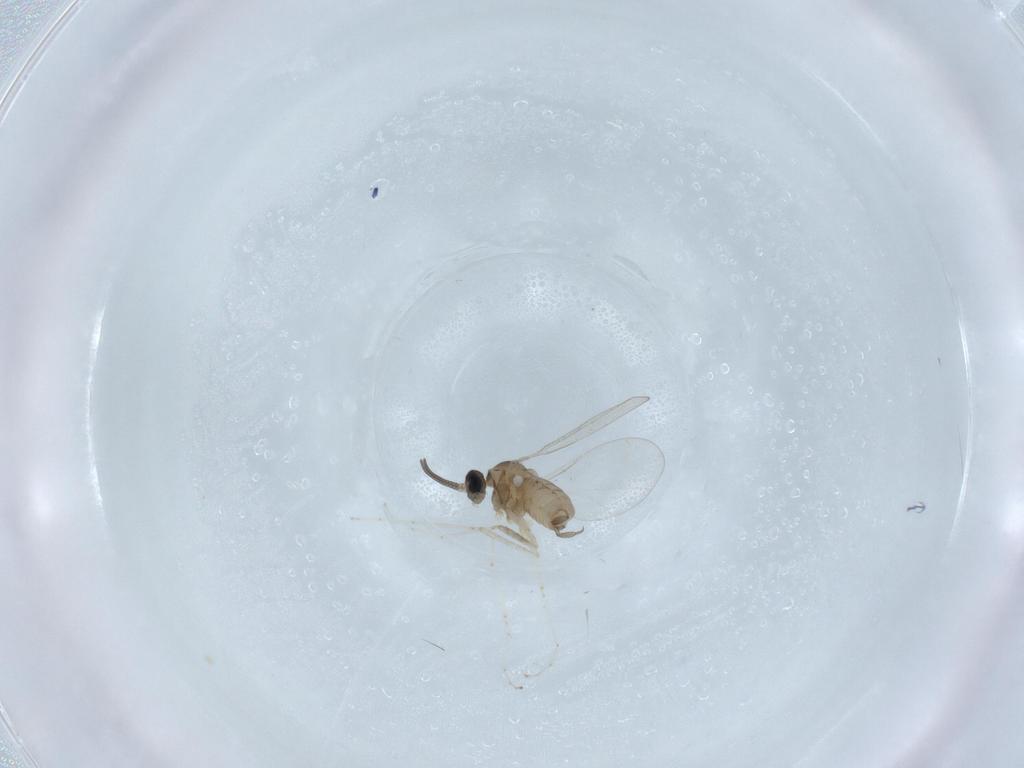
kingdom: Animalia
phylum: Arthropoda
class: Insecta
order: Diptera
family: Cecidomyiidae
